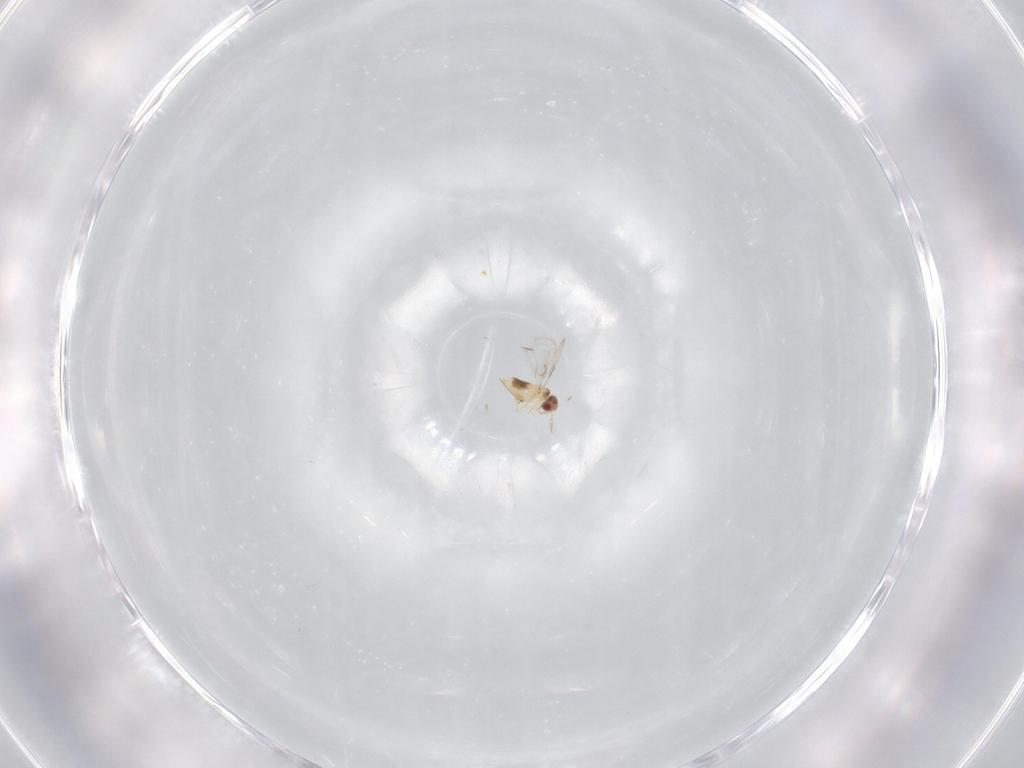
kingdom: Animalia
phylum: Arthropoda
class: Insecta
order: Hymenoptera
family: Trichogrammatidae
